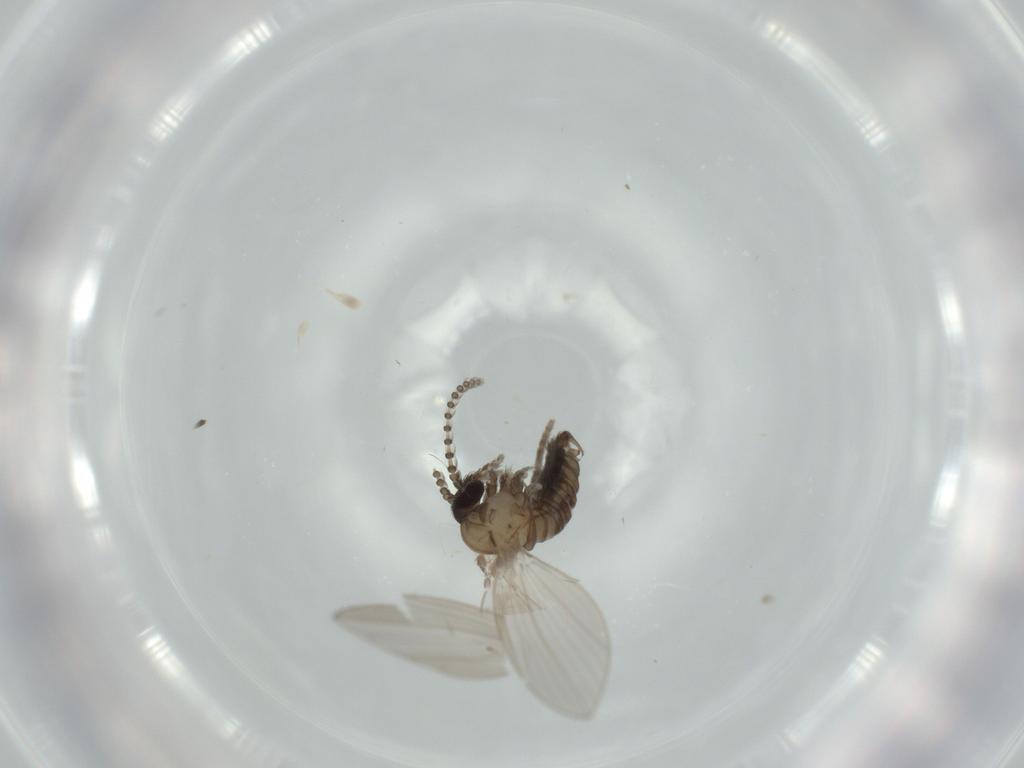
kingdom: Animalia
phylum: Arthropoda
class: Insecta
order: Diptera
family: Psychodidae
